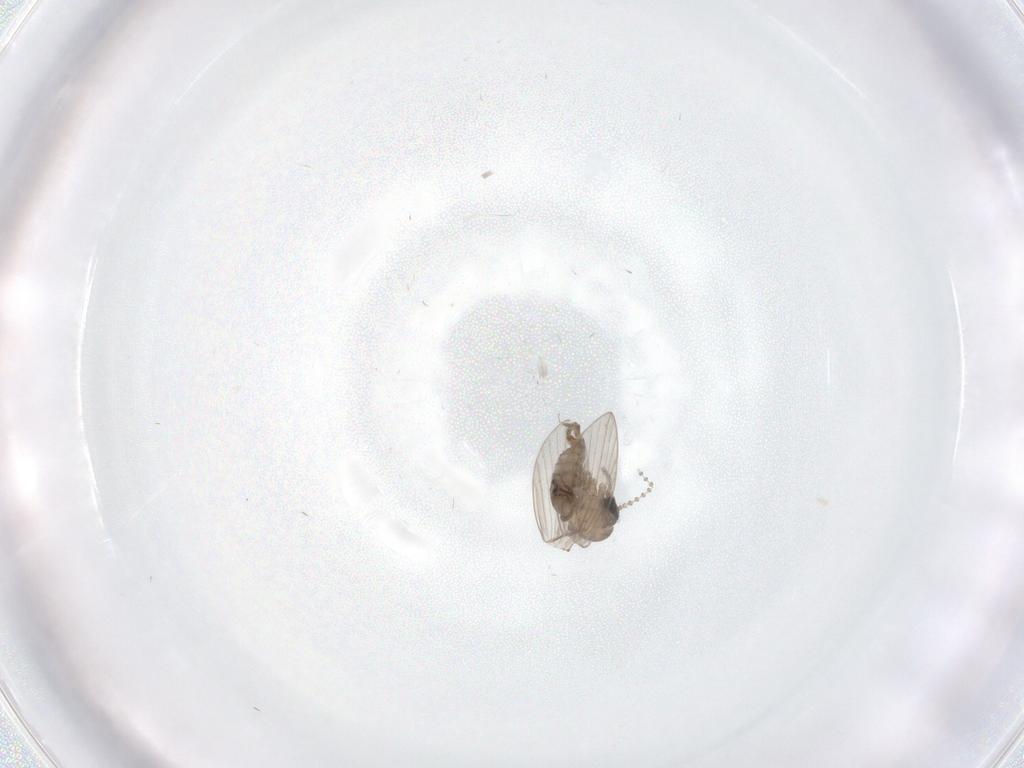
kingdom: Animalia
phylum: Arthropoda
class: Insecta
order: Diptera
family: Psychodidae
